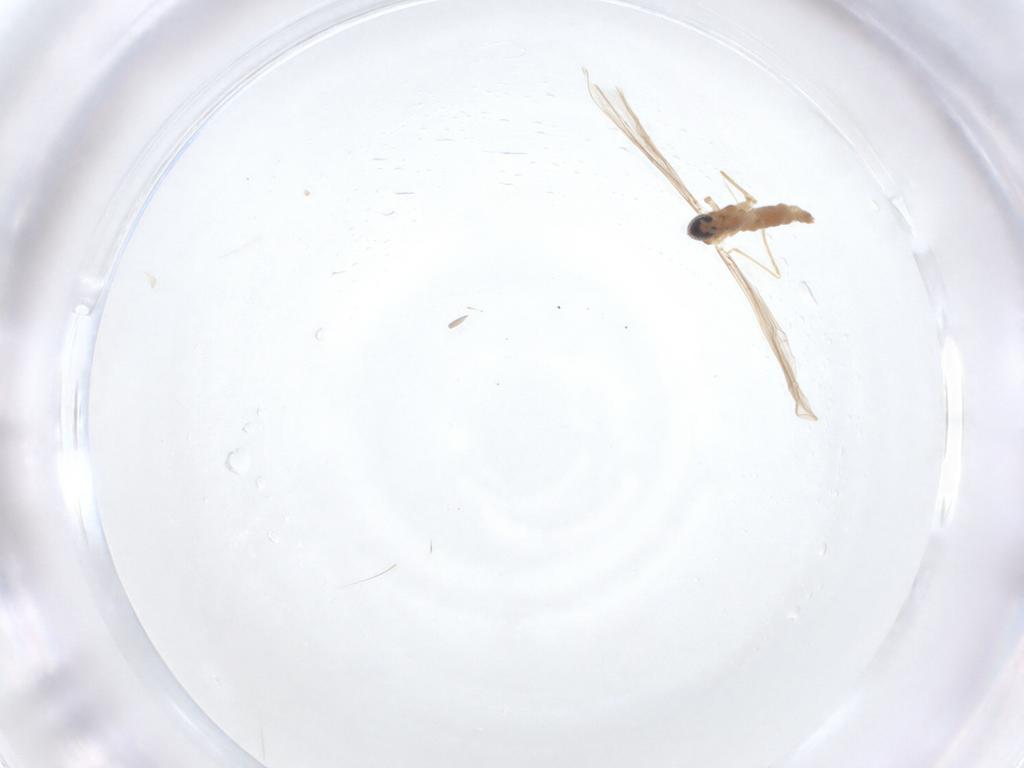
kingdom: Animalia
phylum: Arthropoda
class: Insecta
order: Diptera
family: Cecidomyiidae
